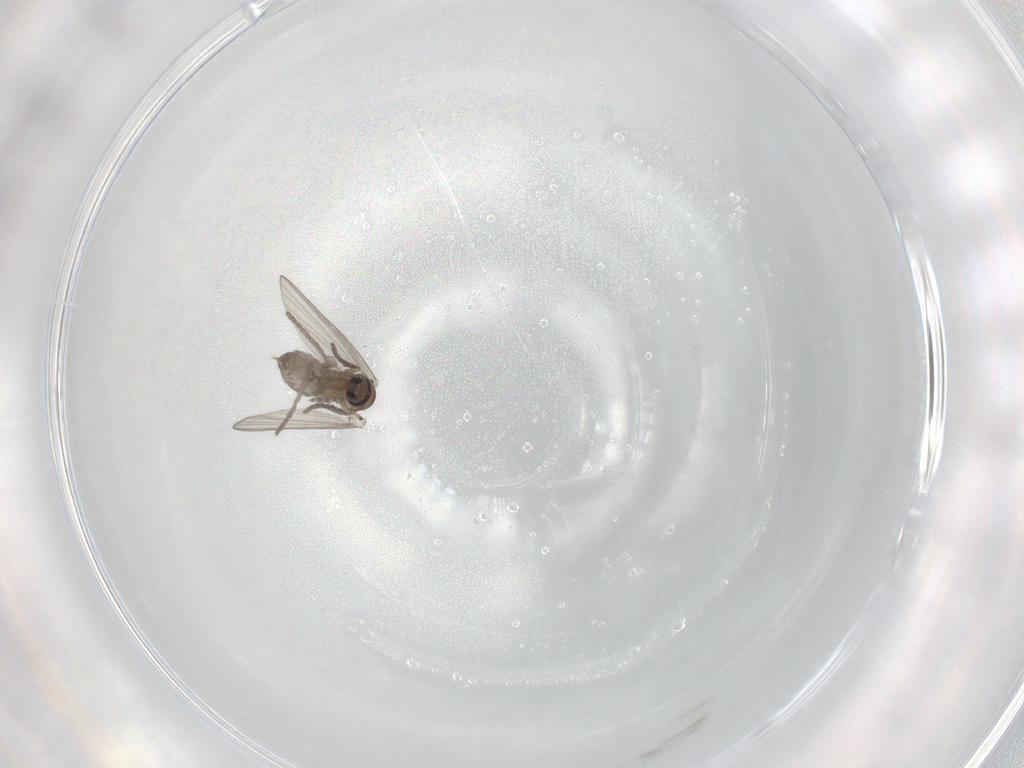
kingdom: Animalia
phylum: Arthropoda
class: Insecta
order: Diptera
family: Psychodidae
